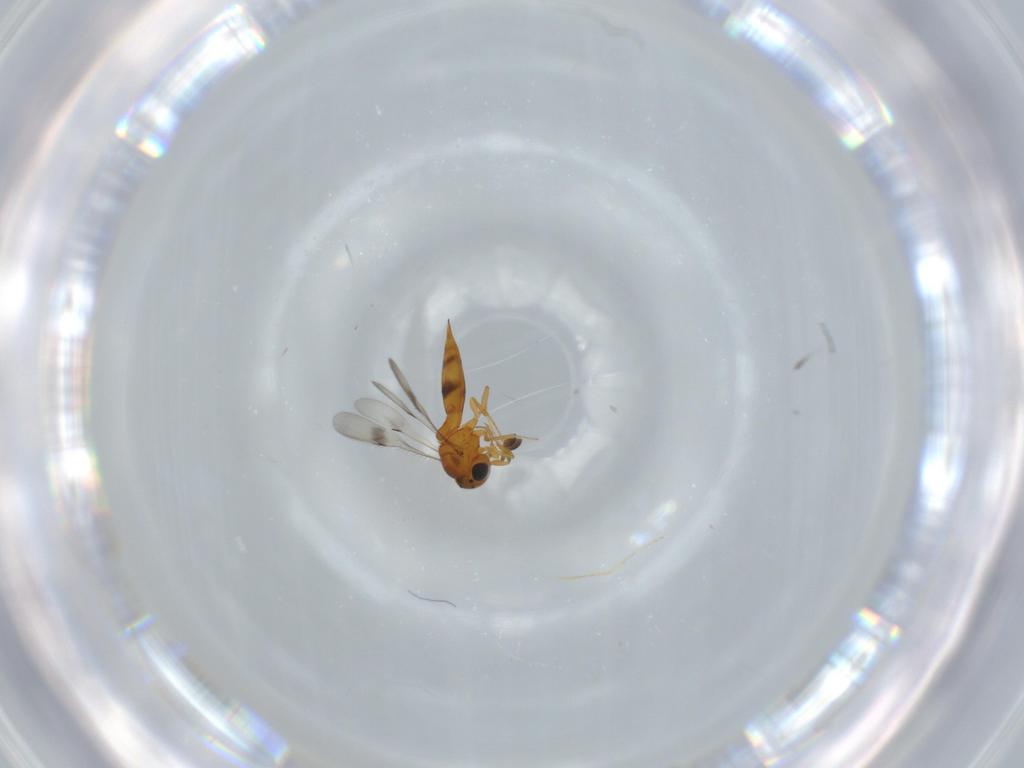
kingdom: Animalia
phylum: Arthropoda
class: Insecta
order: Hymenoptera
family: Scelionidae
